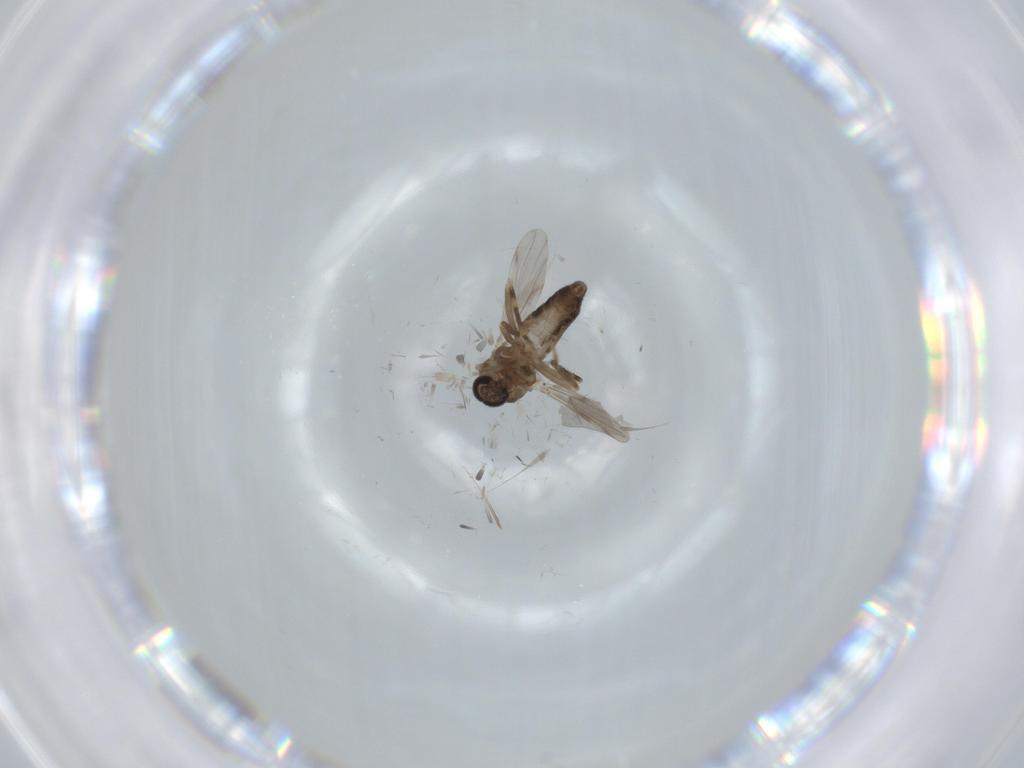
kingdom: Animalia
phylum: Arthropoda
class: Insecta
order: Diptera
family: Ceratopogonidae
